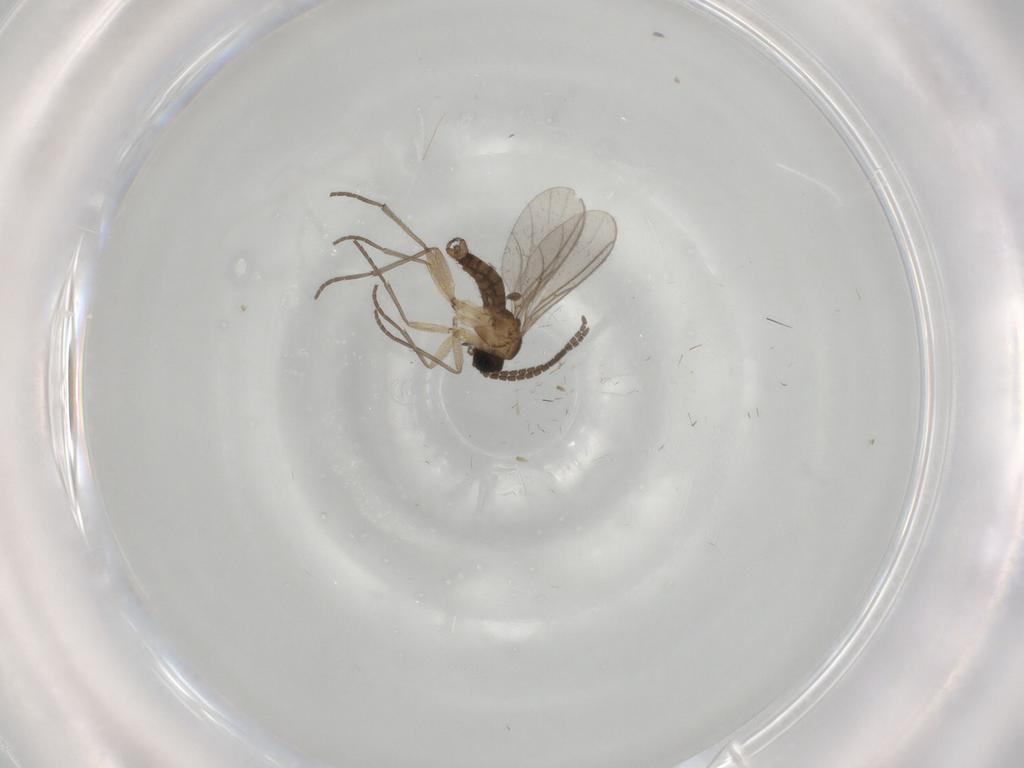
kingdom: Animalia
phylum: Arthropoda
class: Insecta
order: Diptera
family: Sciaridae
